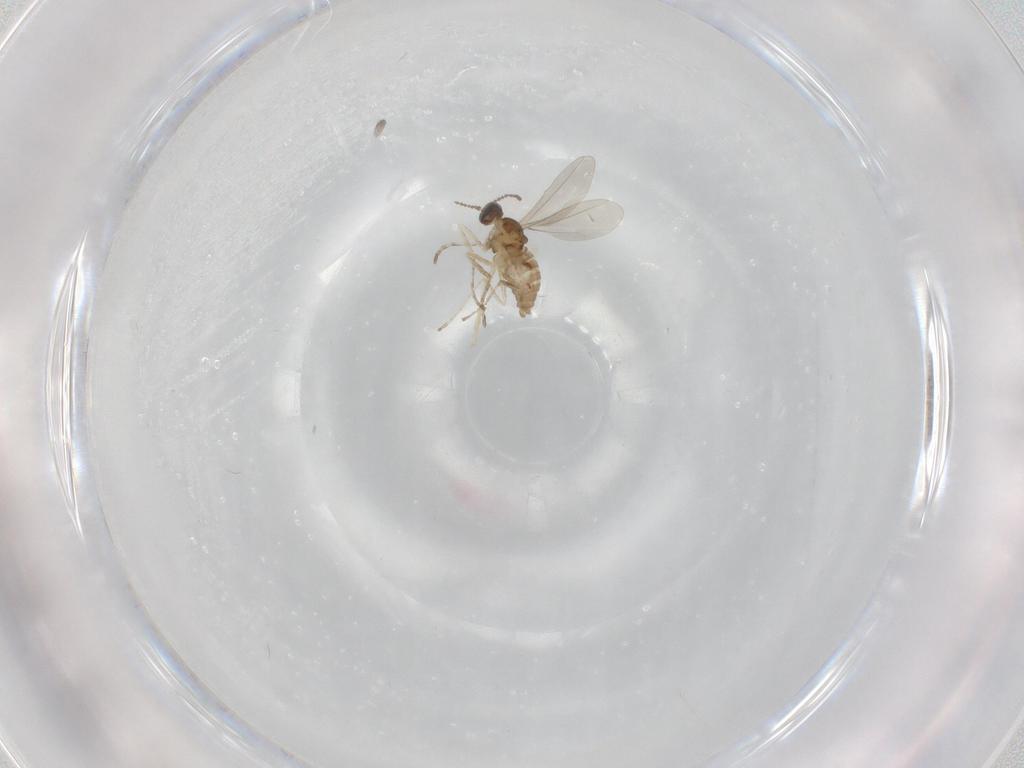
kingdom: Animalia
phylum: Arthropoda
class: Insecta
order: Diptera
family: Cecidomyiidae
